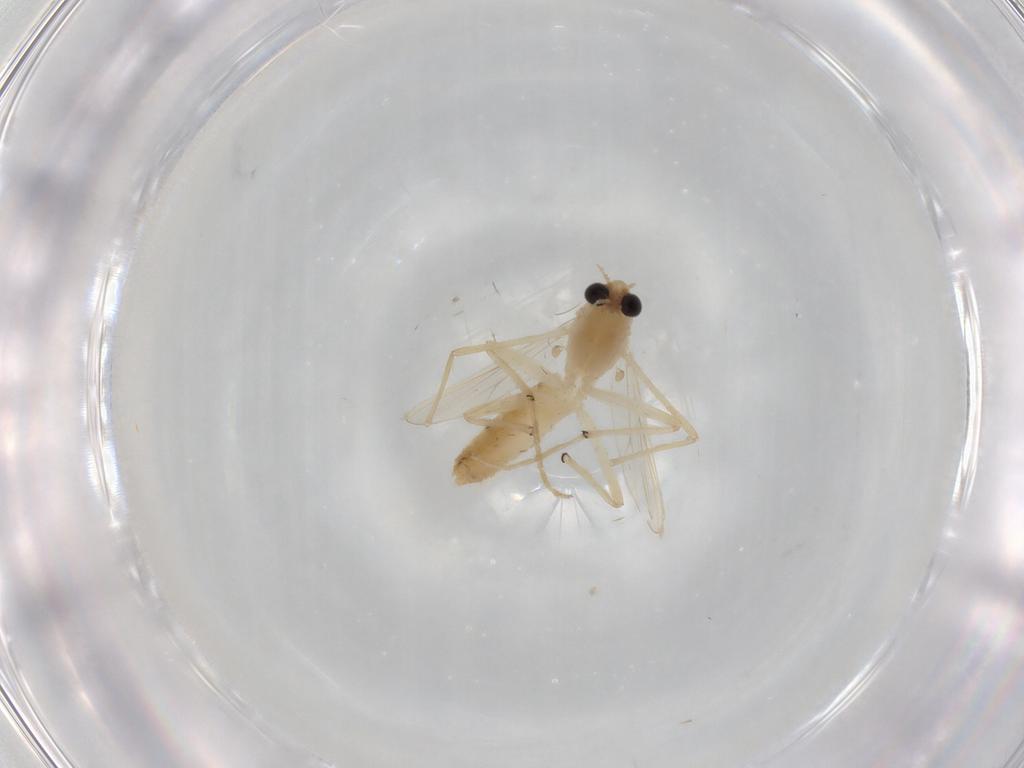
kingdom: Animalia
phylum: Arthropoda
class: Insecta
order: Diptera
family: Chironomidae
